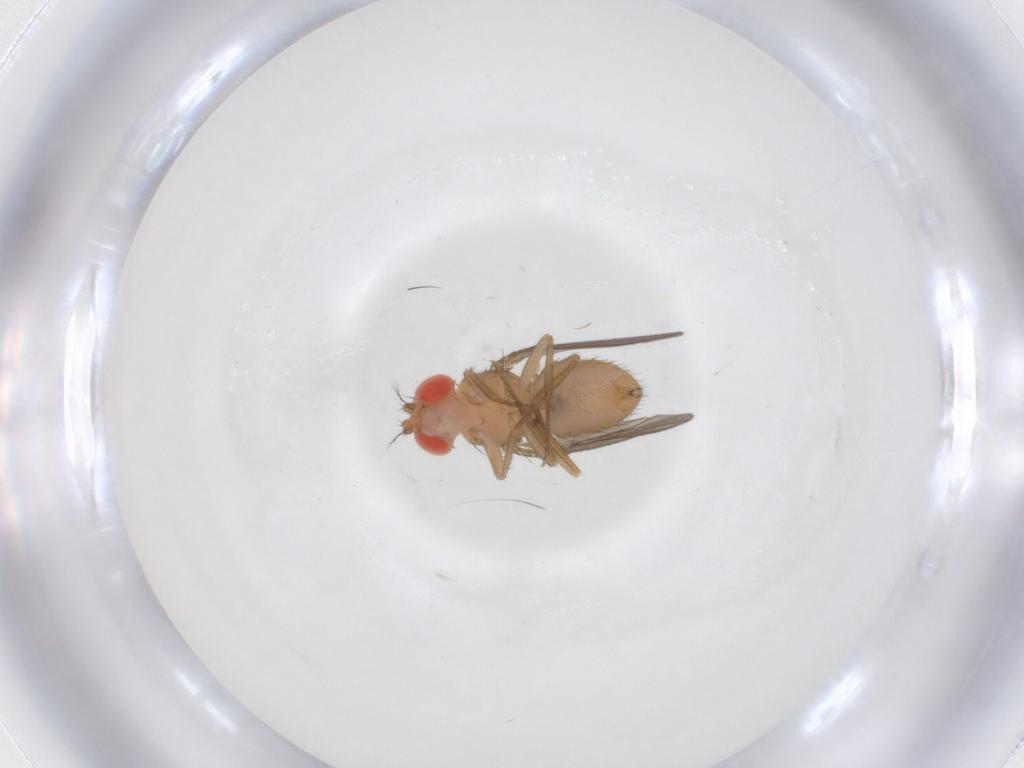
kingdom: Animalia
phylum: Arthropoda
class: Insecta
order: Diptera
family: Drosophilidae
